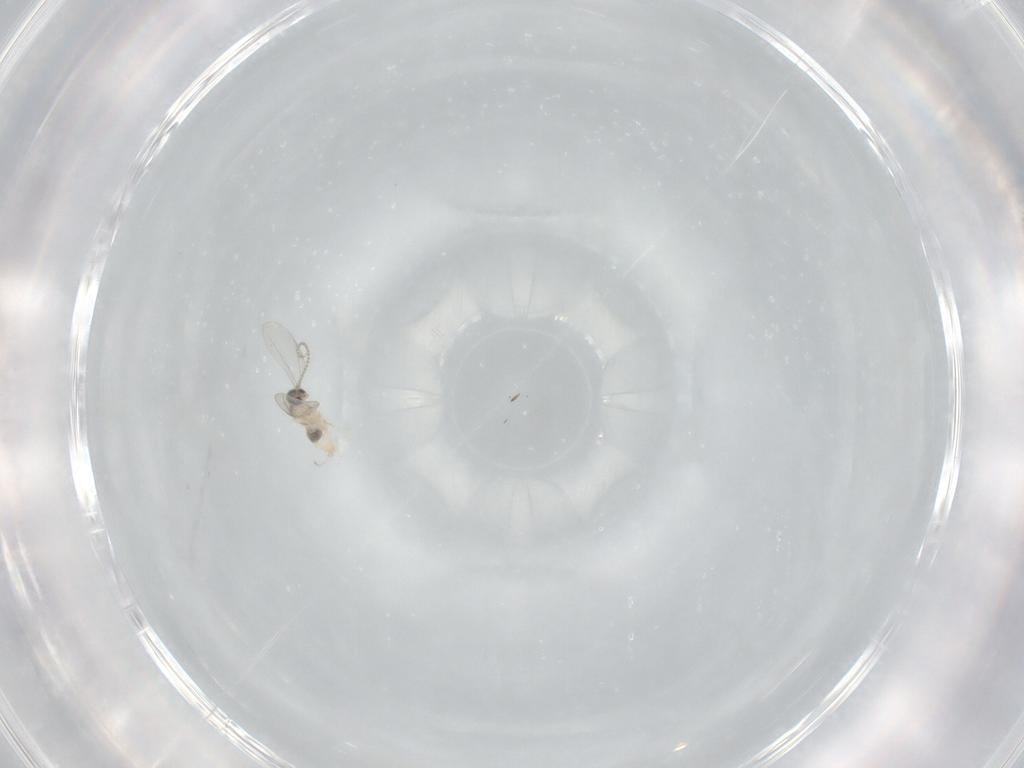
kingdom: Animalia
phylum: Arthropoda
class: Insecta
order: Diptera
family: Cecidomyiidae
